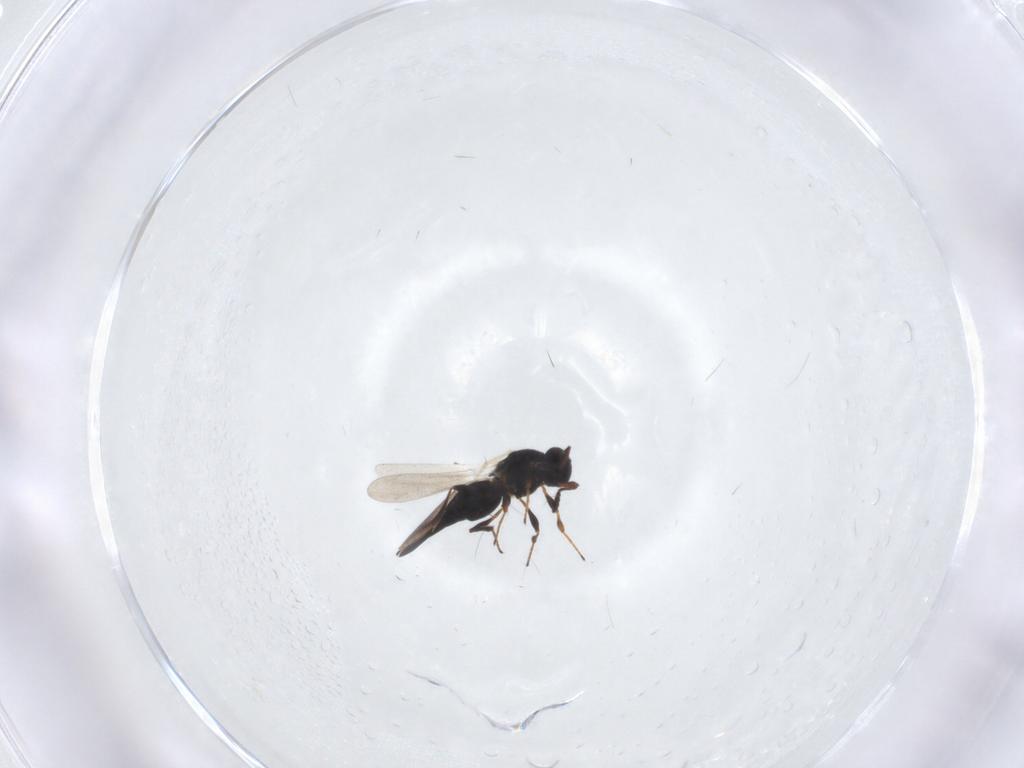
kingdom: Animalia
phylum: Arthropoda
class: Insecta
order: Hymenoptera
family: Platygastridae
